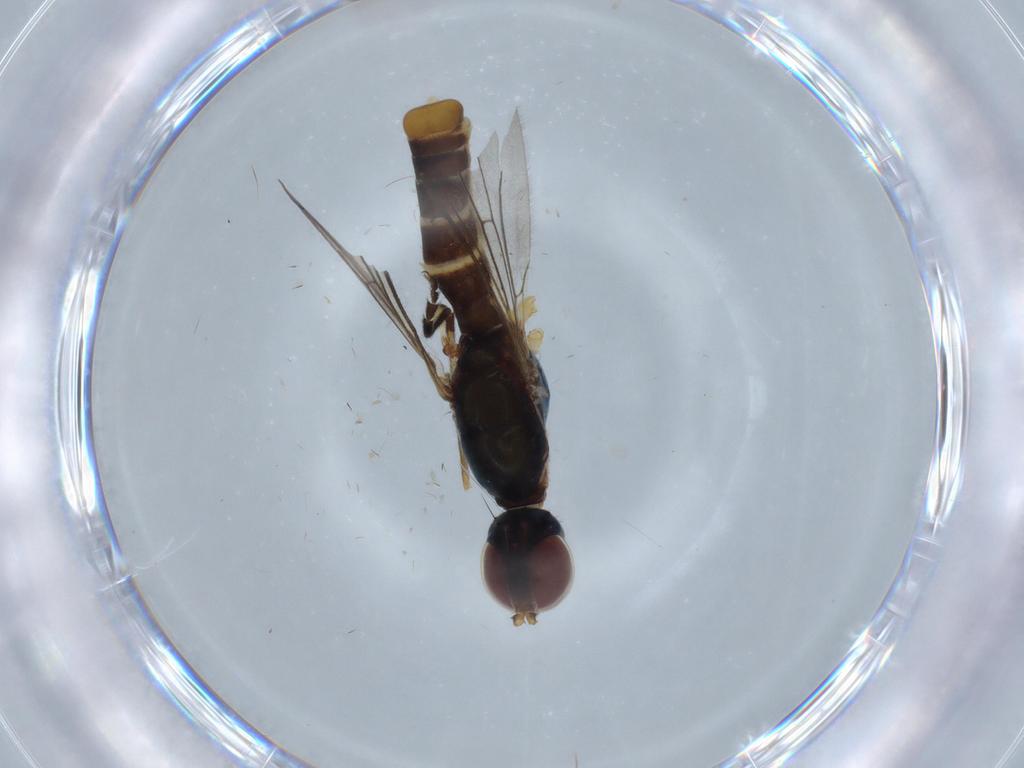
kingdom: Animalia
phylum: Arthropoda
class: Insecta
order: Diptera
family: Micropezidae
